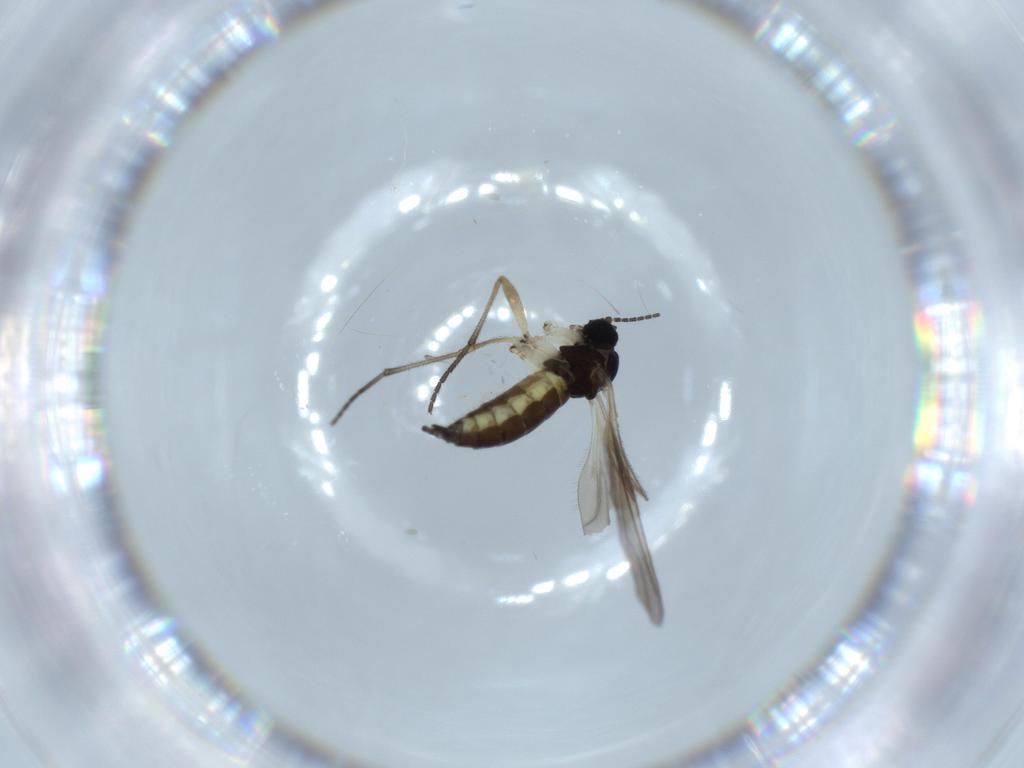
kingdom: Animalia
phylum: Arthropoda
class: Insecta
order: Diptera
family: Sciaridae
